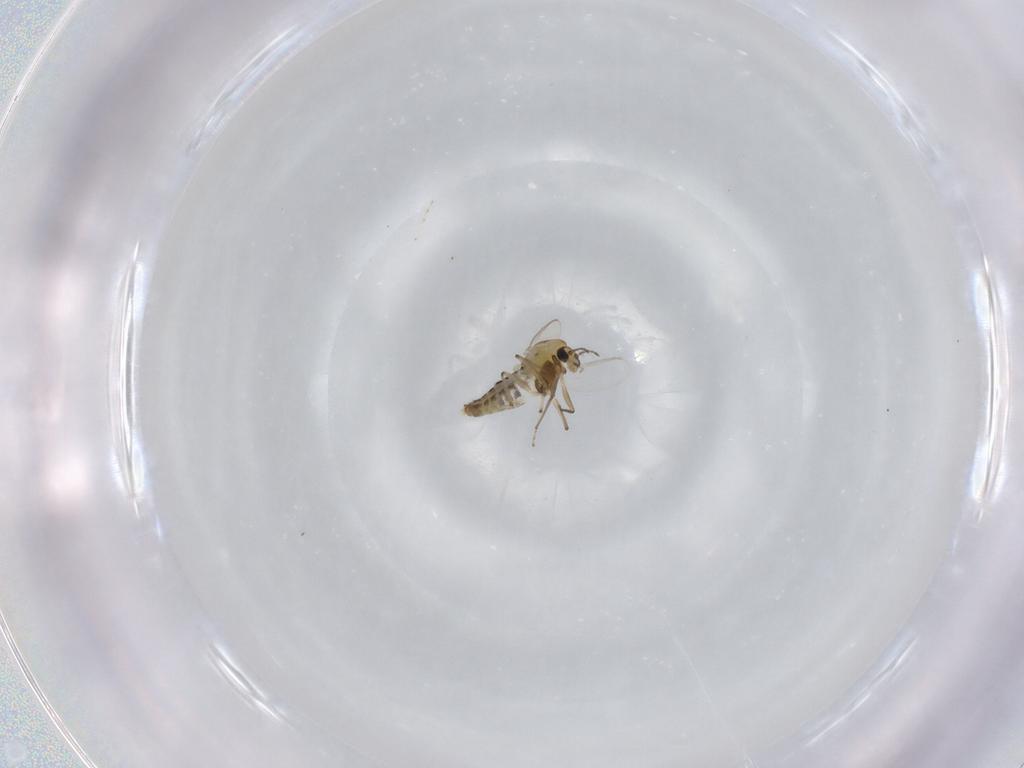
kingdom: Animalia
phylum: Arthropoda
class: Insecta
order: Diptera
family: Chironomidae
